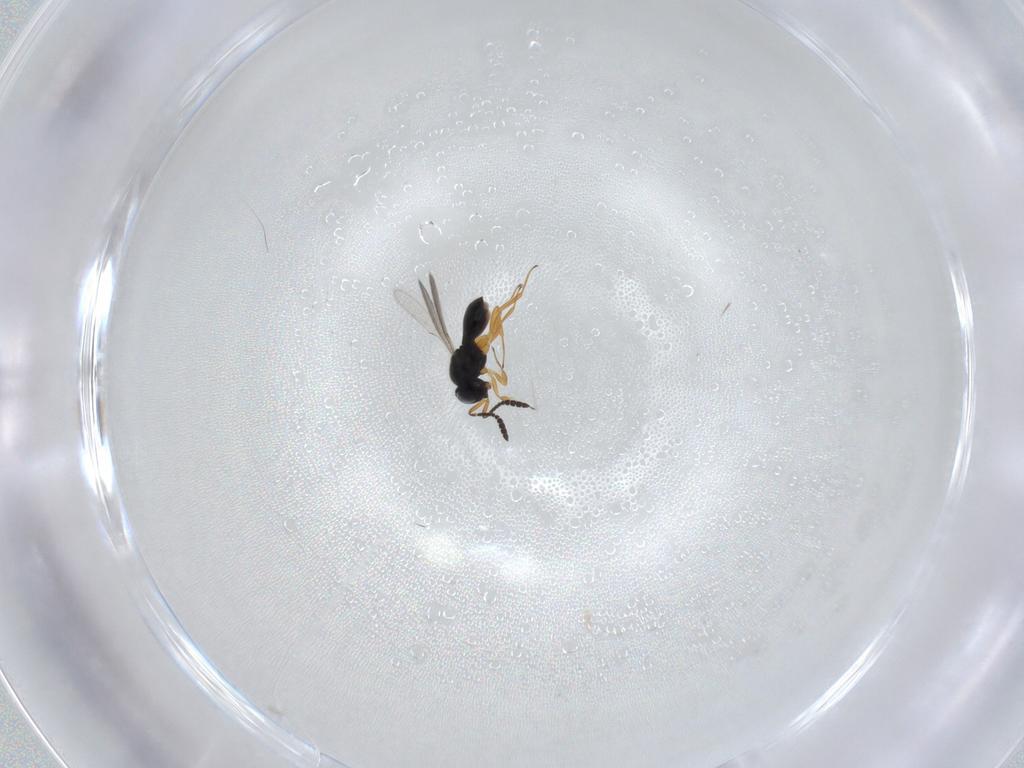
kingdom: Animalia
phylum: Arthropoda
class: Insecta
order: Hymenoptera
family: Scelionidae
